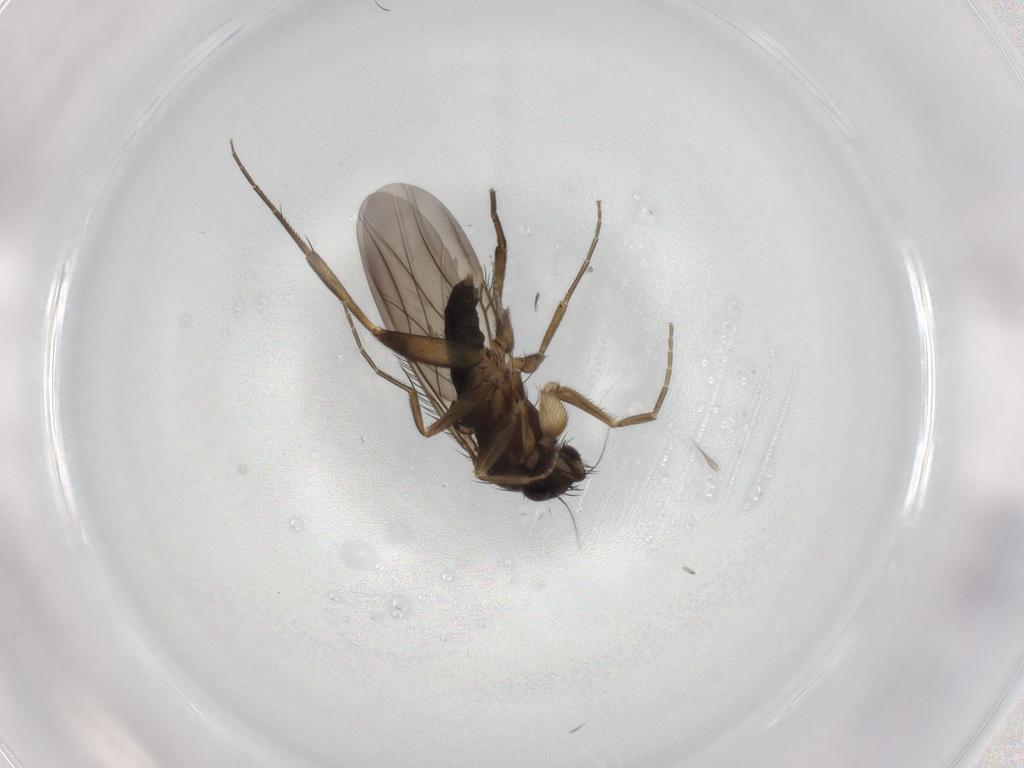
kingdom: Animalia
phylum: Arthropoda
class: Insecta
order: Diptera
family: Phoridae
